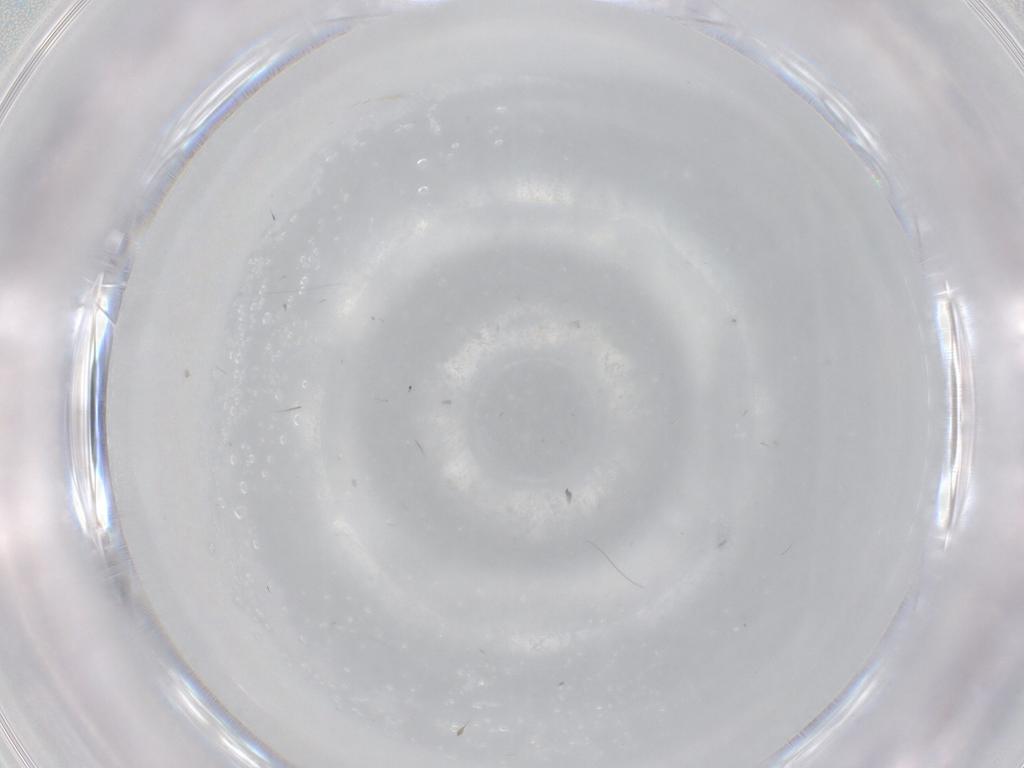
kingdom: Animalia
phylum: Arthropoda
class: Insecta
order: Diptera
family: Cecidomyiidae
